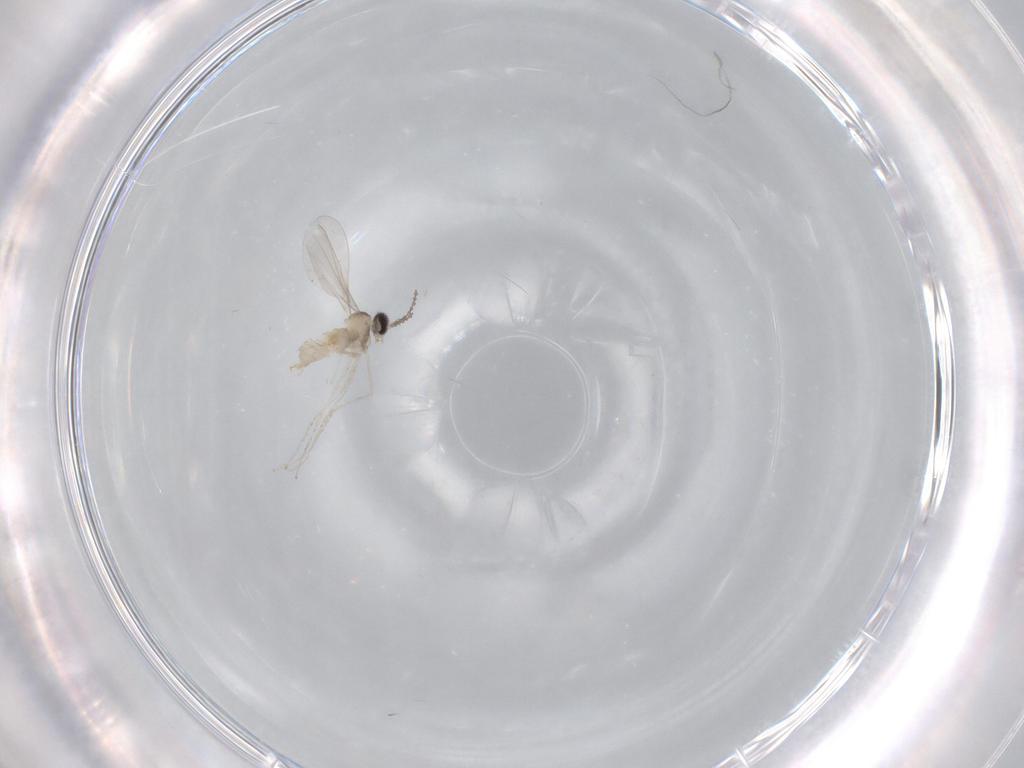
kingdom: Animalia
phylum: Arthropoda
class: Insecta
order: Diptera
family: Cecidomyiidae
